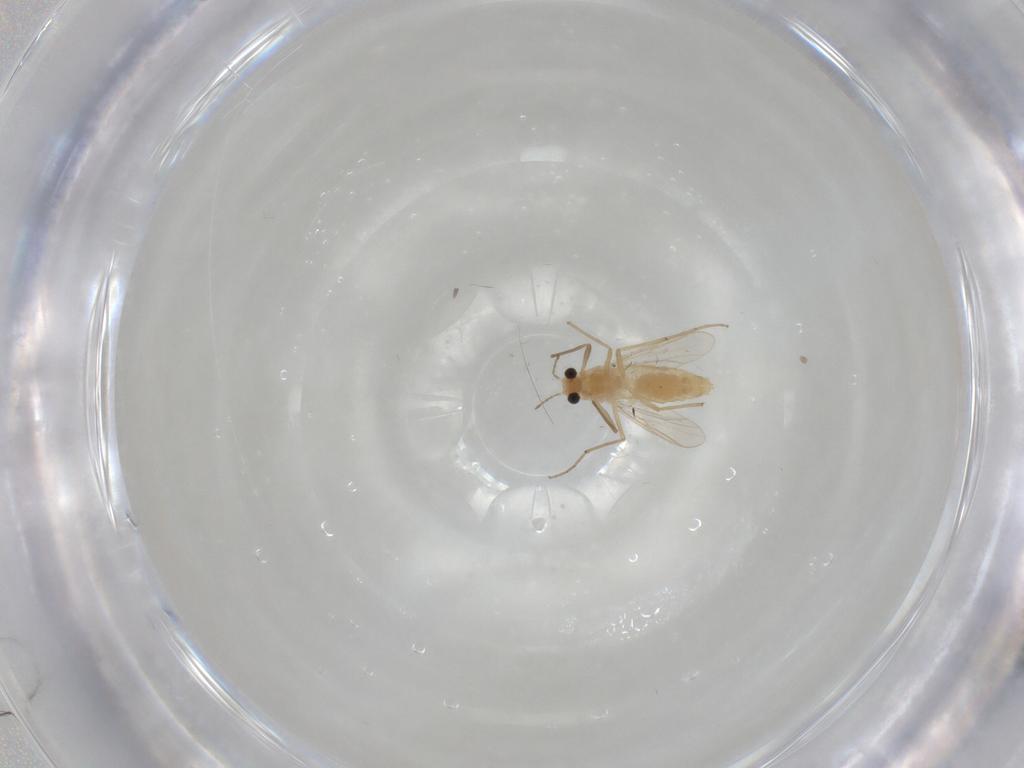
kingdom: Animalia
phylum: Arthropoda
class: Insecta
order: Diptera
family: Chironomidae
